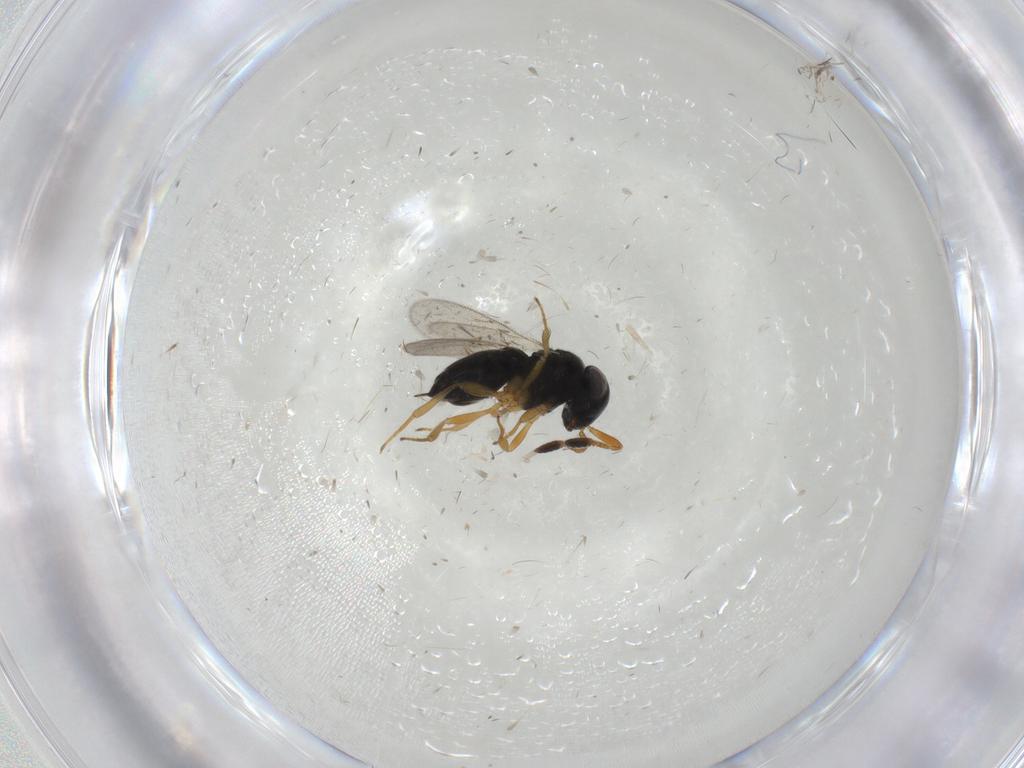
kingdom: Animalia
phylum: Arthropoda
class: Insecta
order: Hymenoptera
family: Scelionidae
